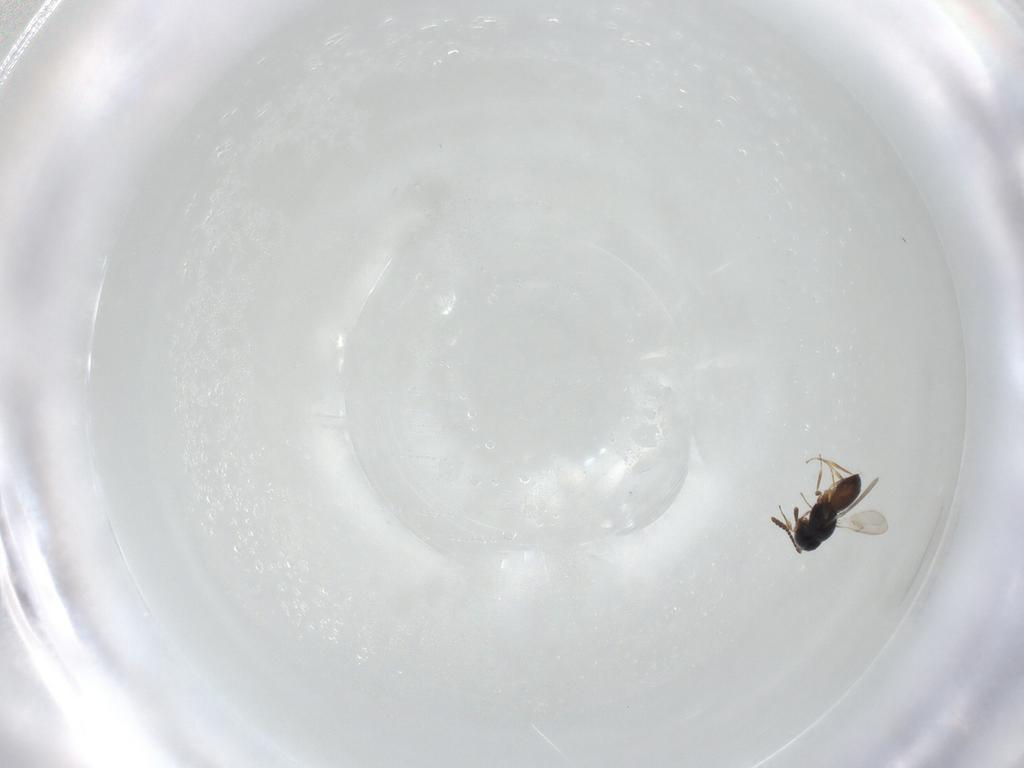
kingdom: Animalia
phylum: Arthropoda
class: Insecta
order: Hymenoptera
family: Scelionidae
